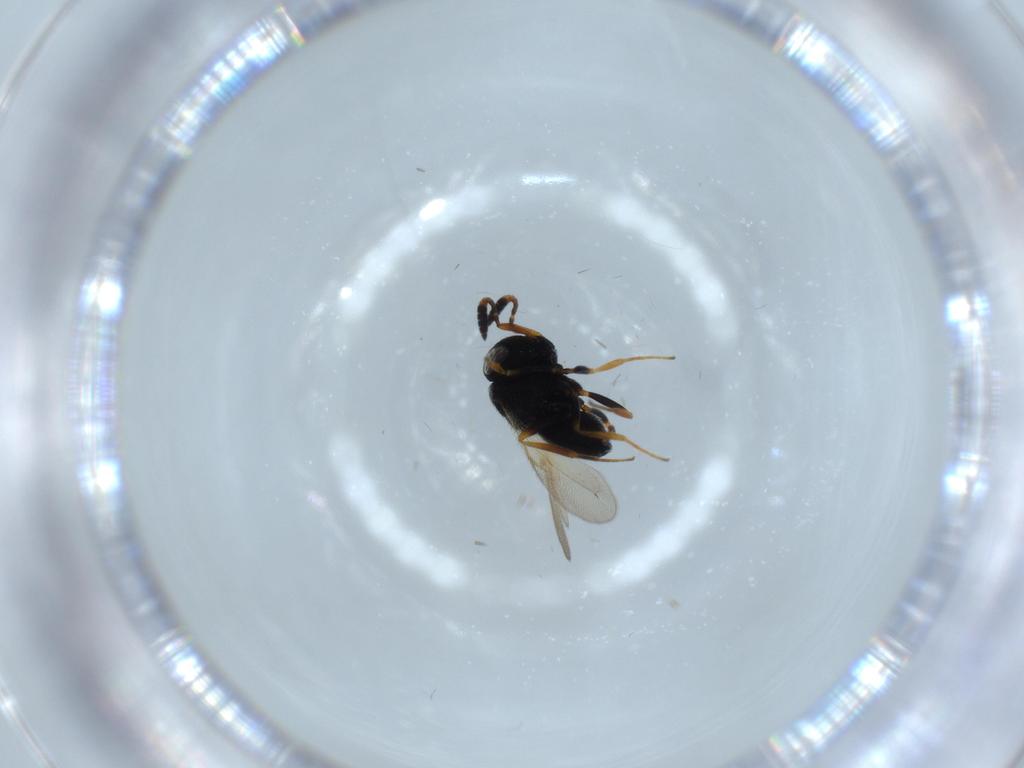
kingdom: Animalia
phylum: Arthropoda
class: Insecta
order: Hymenoptera
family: Scelionidae
